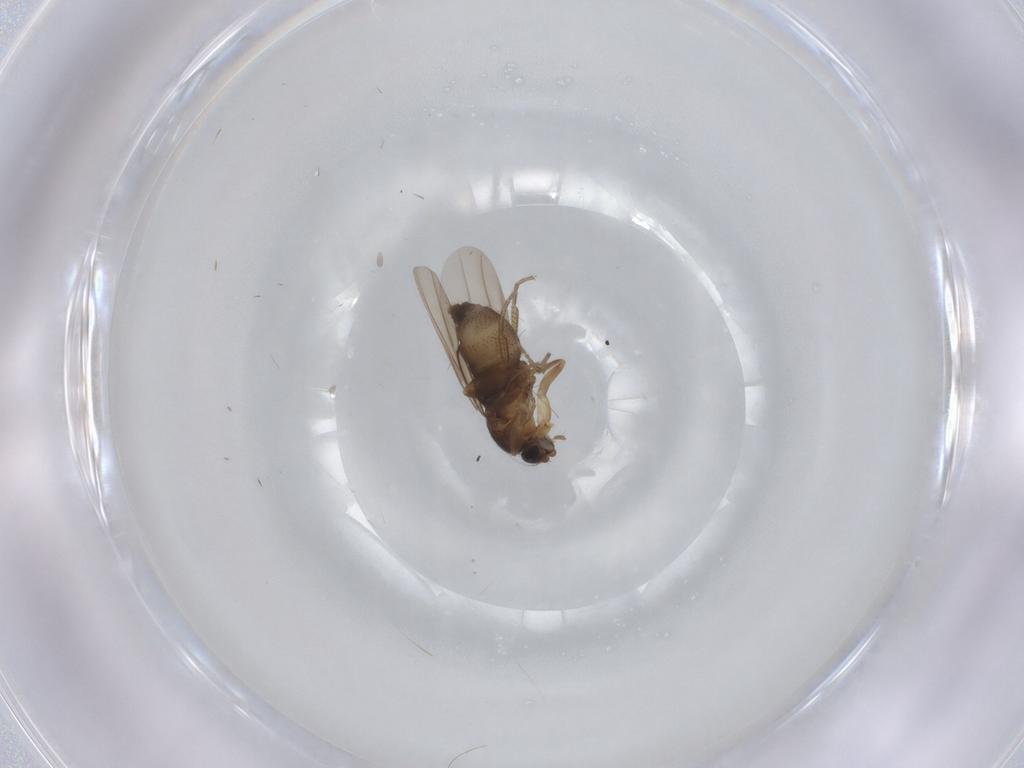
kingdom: Animalia
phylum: Arthropoda
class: Insecta
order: Diptera
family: Phoridae
